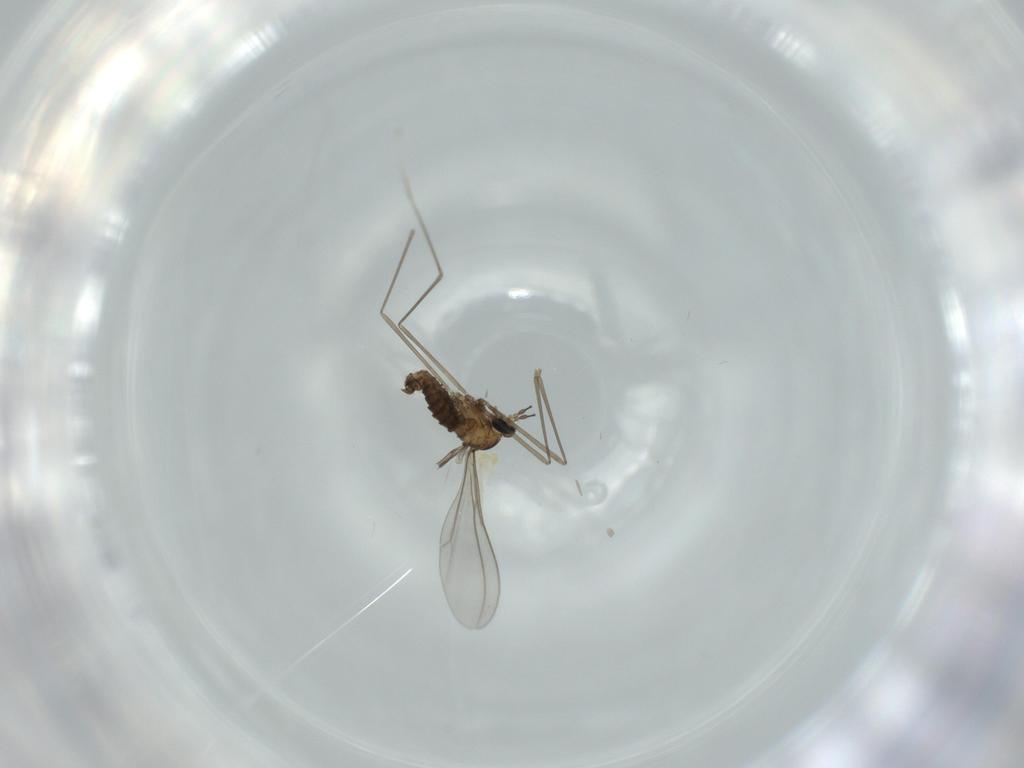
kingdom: Animalia
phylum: Arthropoda
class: Insecta
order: Diptera
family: Cecidomyiidae
